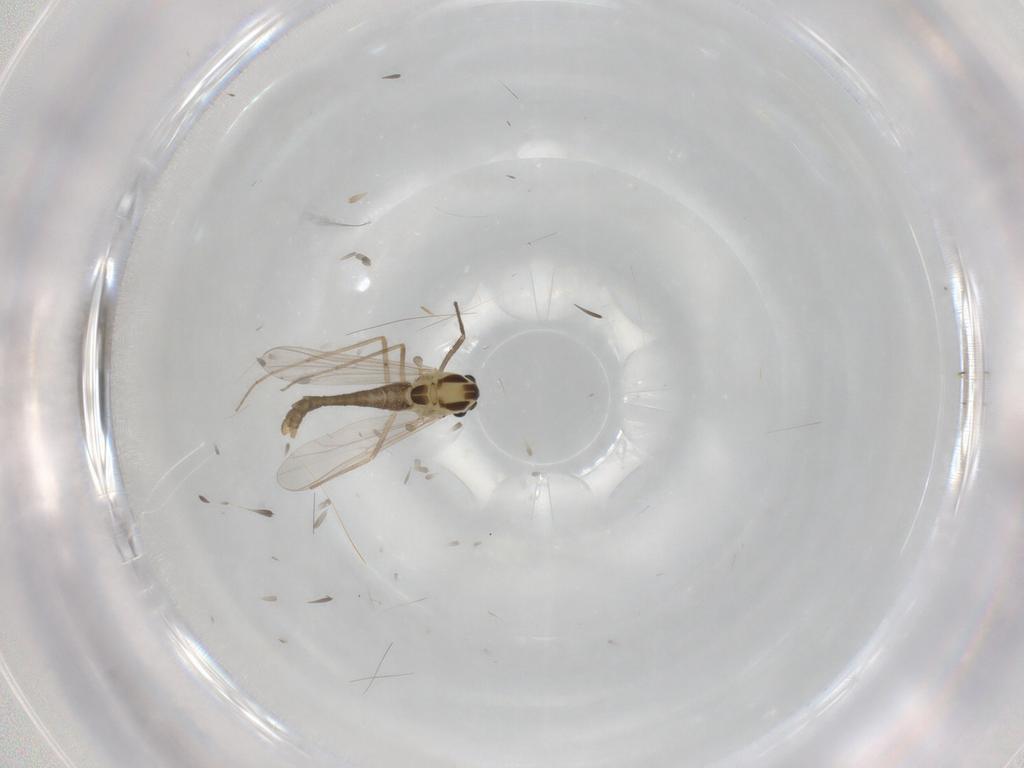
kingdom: Animalia
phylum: Arthropoda
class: Insecta
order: Diptera
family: Chironomidae
